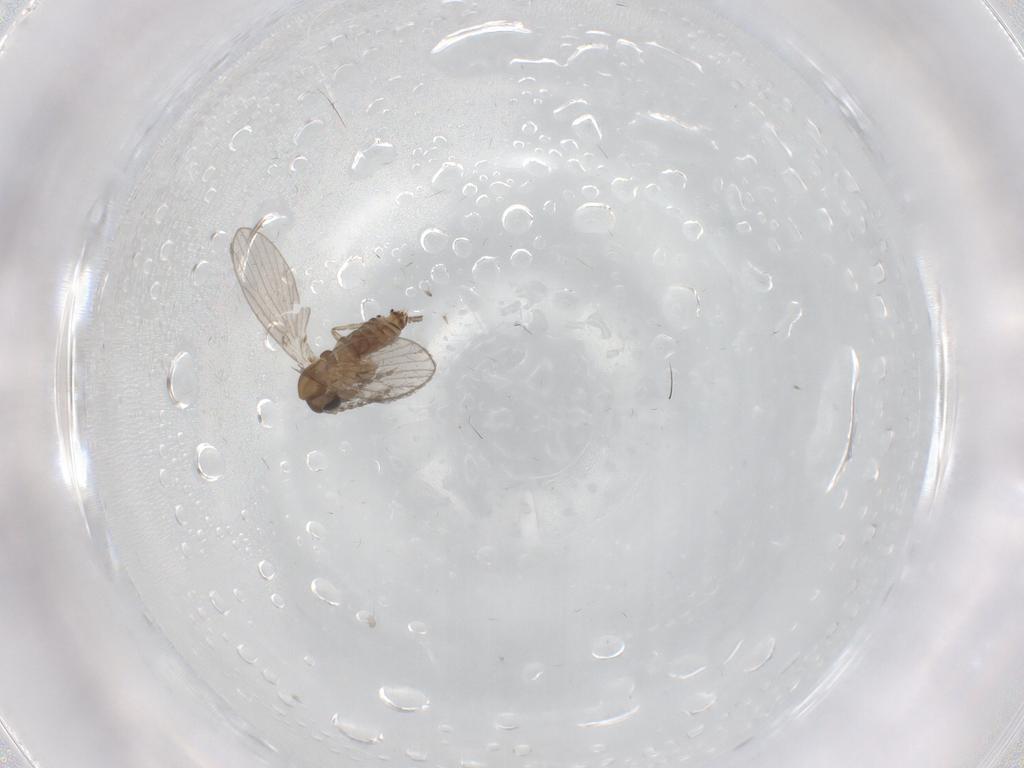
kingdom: Animalia
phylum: Arthropoda
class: Insecta
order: Diptera
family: Psychodidae
